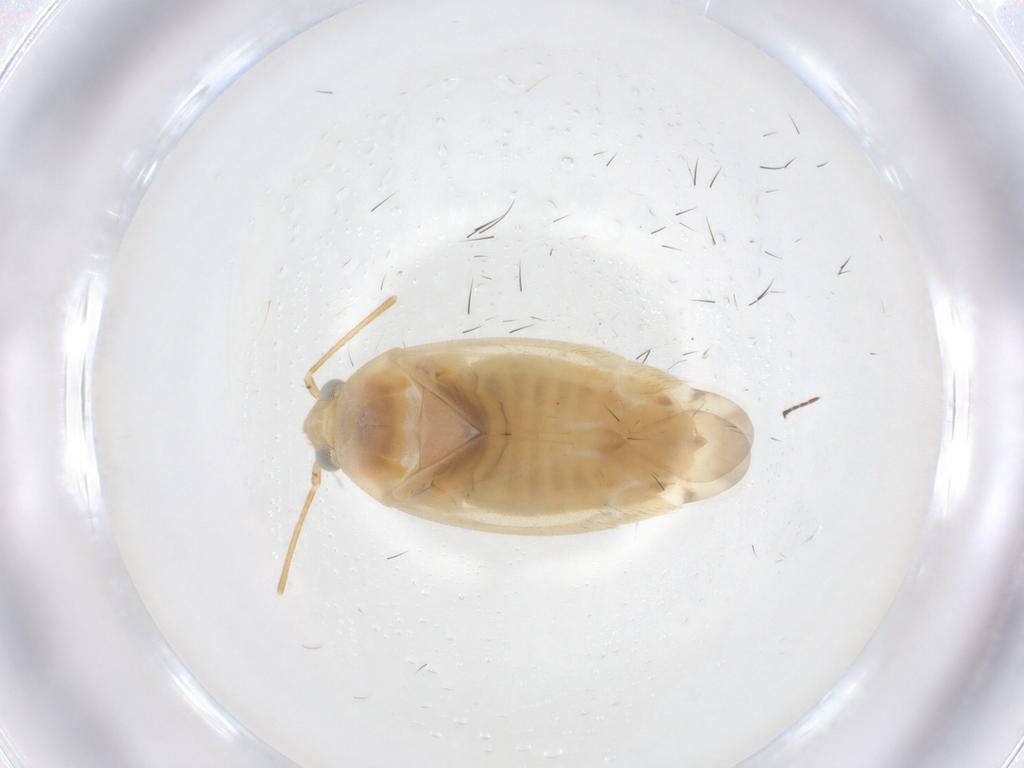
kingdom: Animalia
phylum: Arthropoda
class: Insecta
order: Hemiptera
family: Miridae
